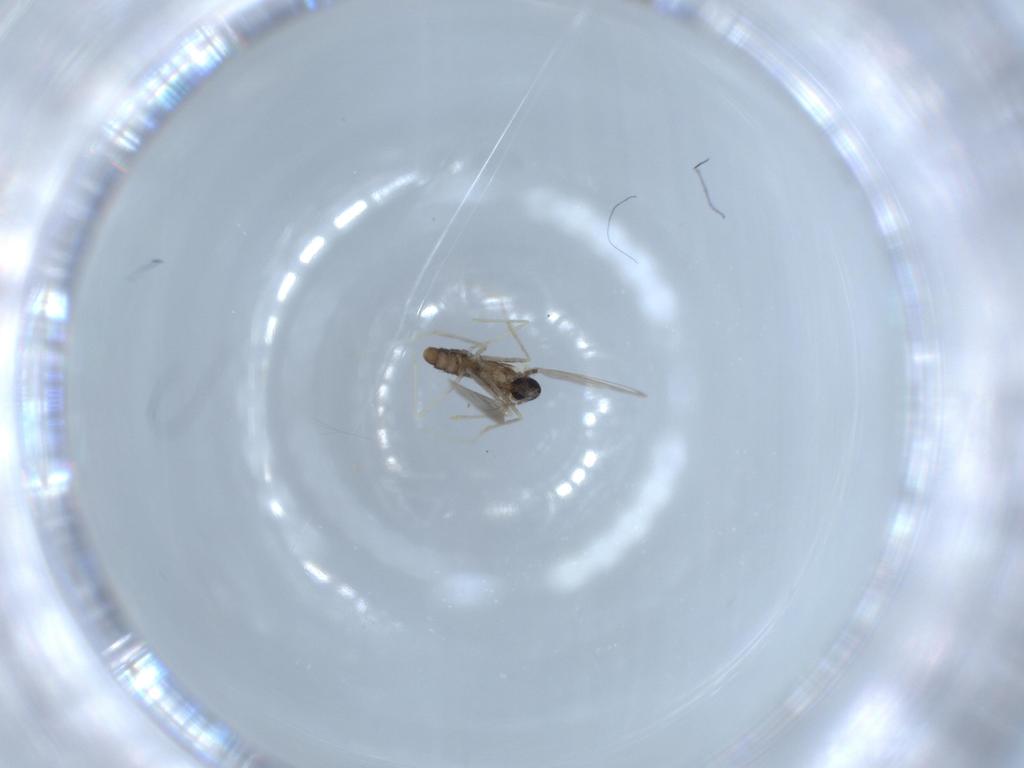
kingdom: Animalia
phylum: Arthropoda
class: Insecta
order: Diptera
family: Cecidomyiidae
